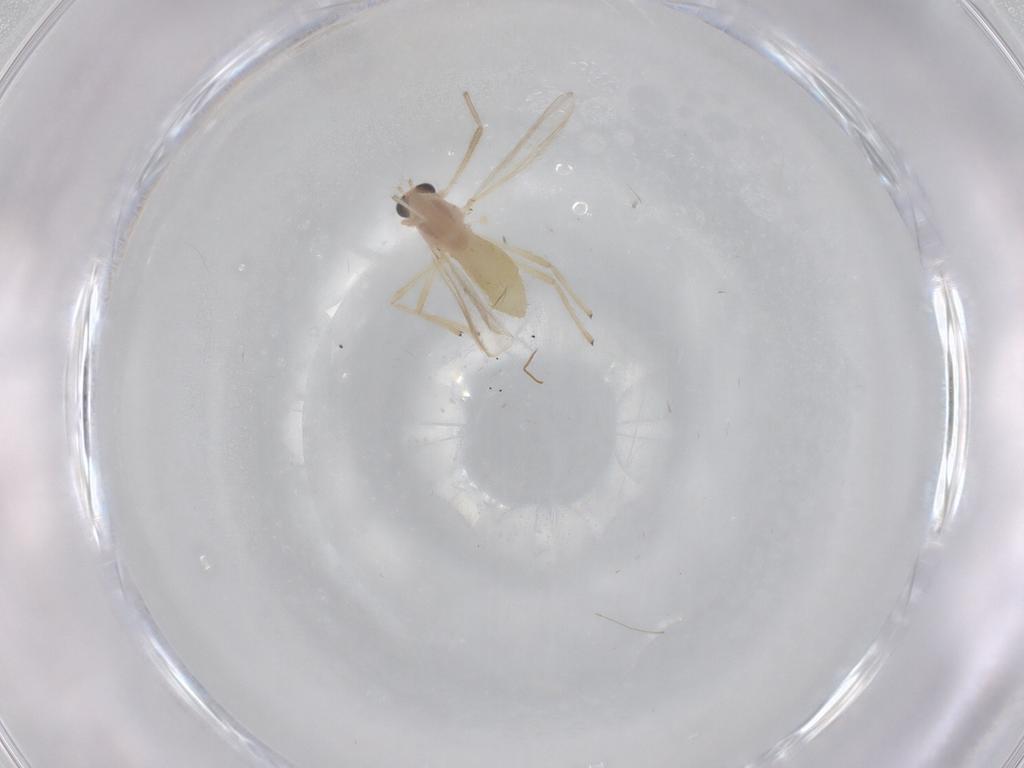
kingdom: Animalia
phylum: Arthropoda
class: Insecta
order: Diptera
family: Chironomidae
